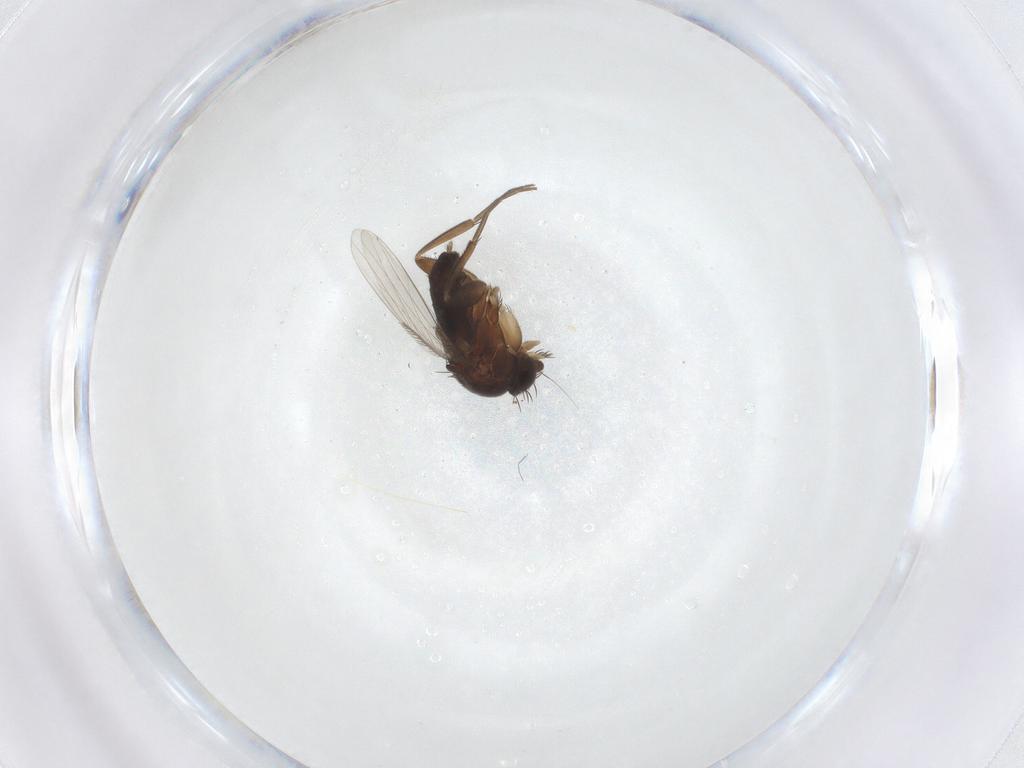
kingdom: Animalia
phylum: Arthropoda
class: Insecta
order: Diptera
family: Phoridae
